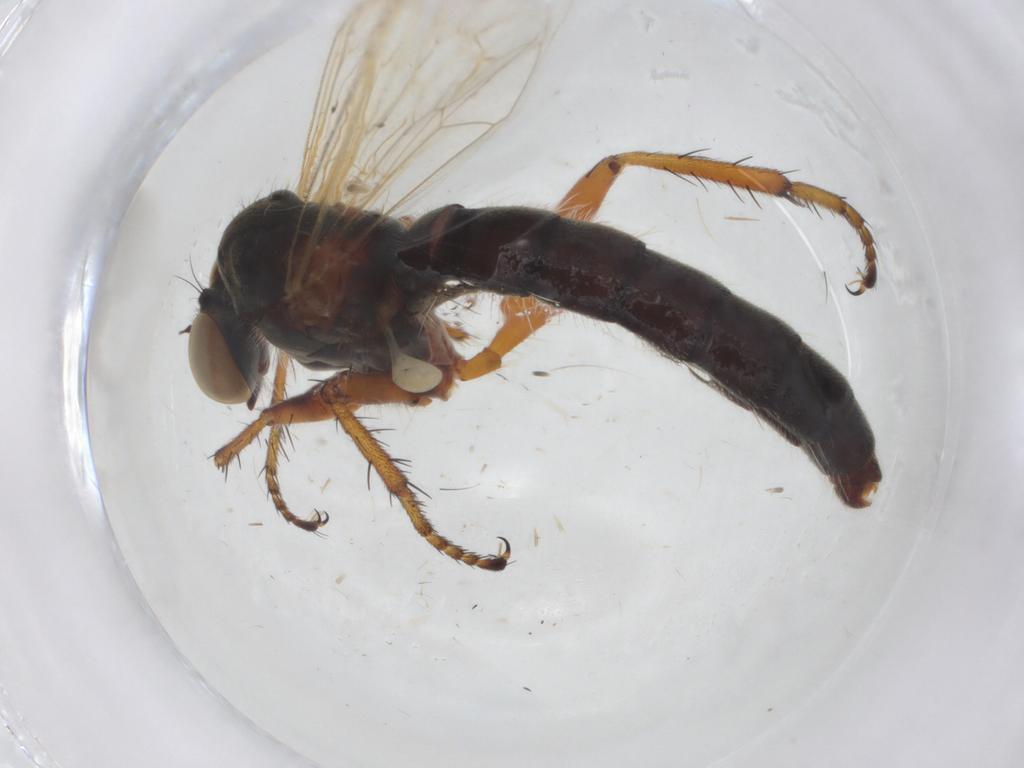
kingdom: Animalia
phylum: Arthropoda
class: Insecta
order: Diptera
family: Asilidae
